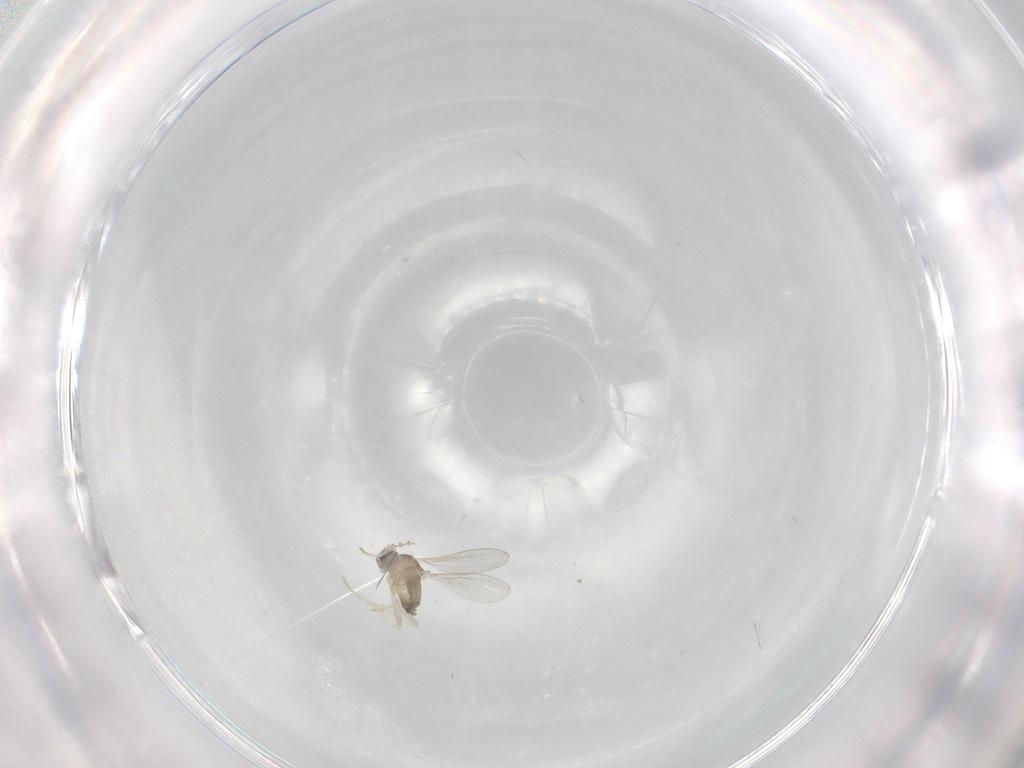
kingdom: Animalia
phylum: Arthropoda
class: Insecta
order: Diptera
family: Cecidomyiidae
